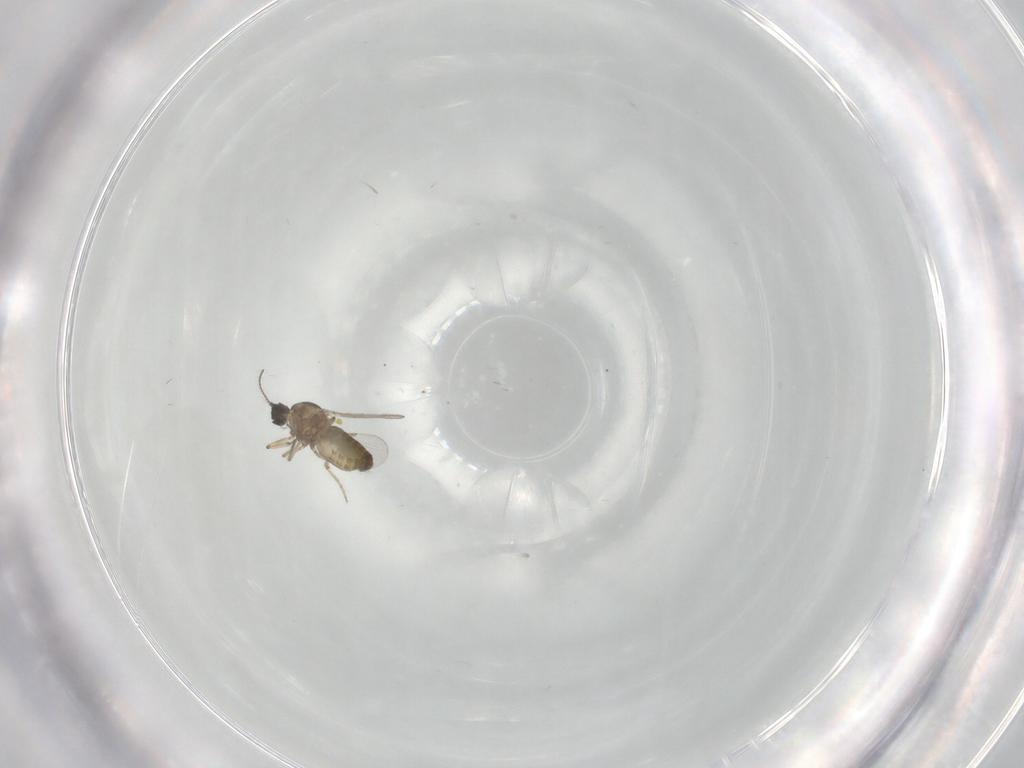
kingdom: Animalia
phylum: Arthropoda
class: Insecta
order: Diptera
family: Ceratopogonidae
